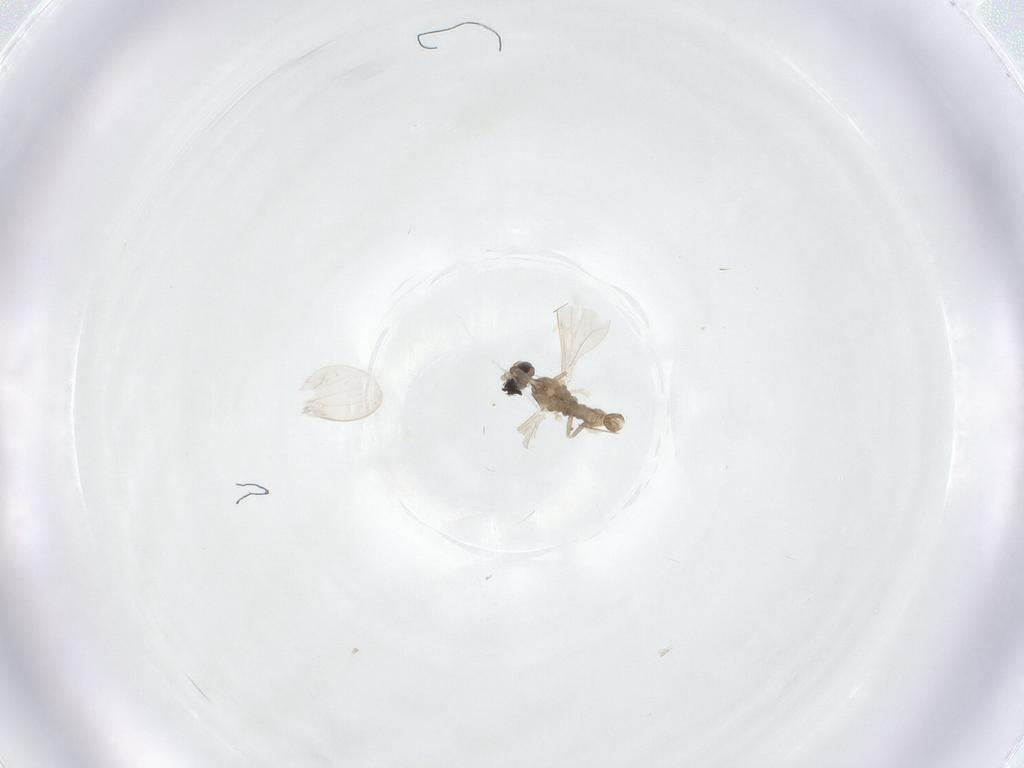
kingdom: Animalia
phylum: Arthropoda
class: Insecta
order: Diptera
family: Cecidomyiidae
